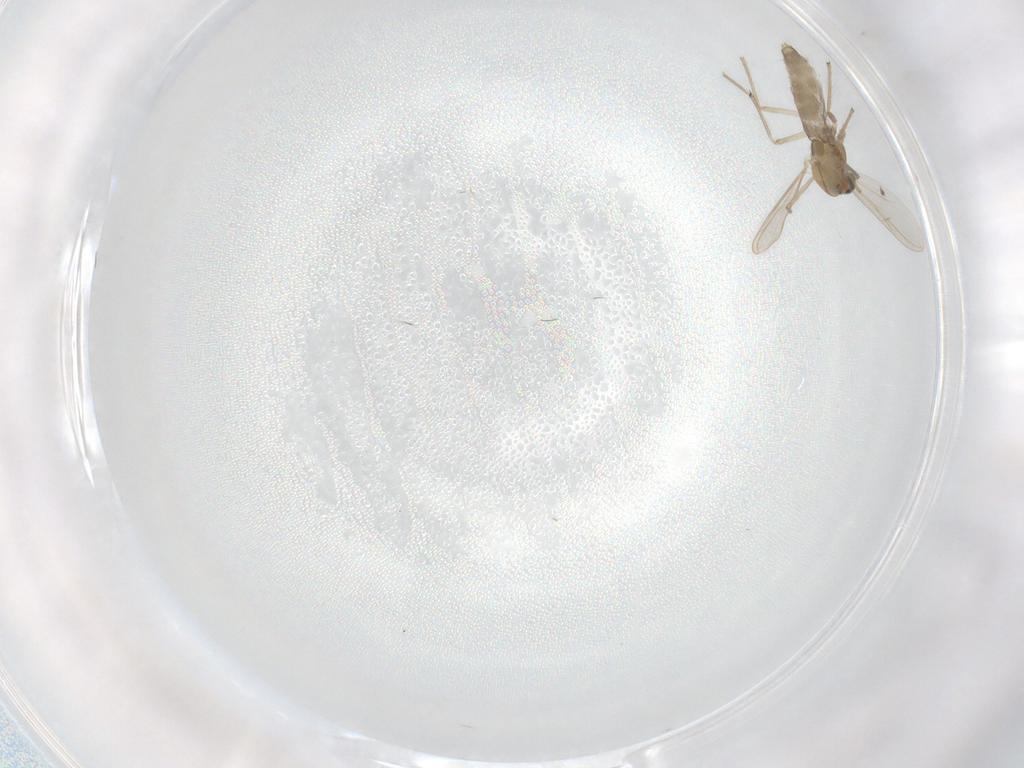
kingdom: Animalia
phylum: Arthropoda
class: Insecta
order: Diptera
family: Chironomidae
